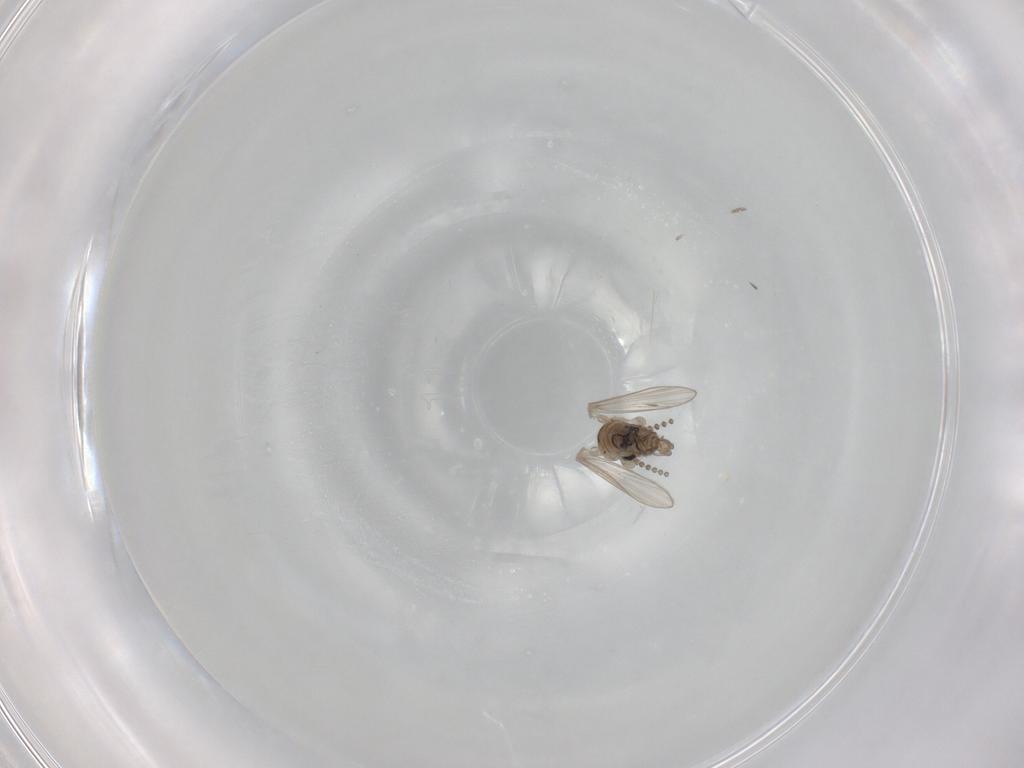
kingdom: Animalia
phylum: Arthropoda
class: Insecta
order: Diptera
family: Psychodidae
